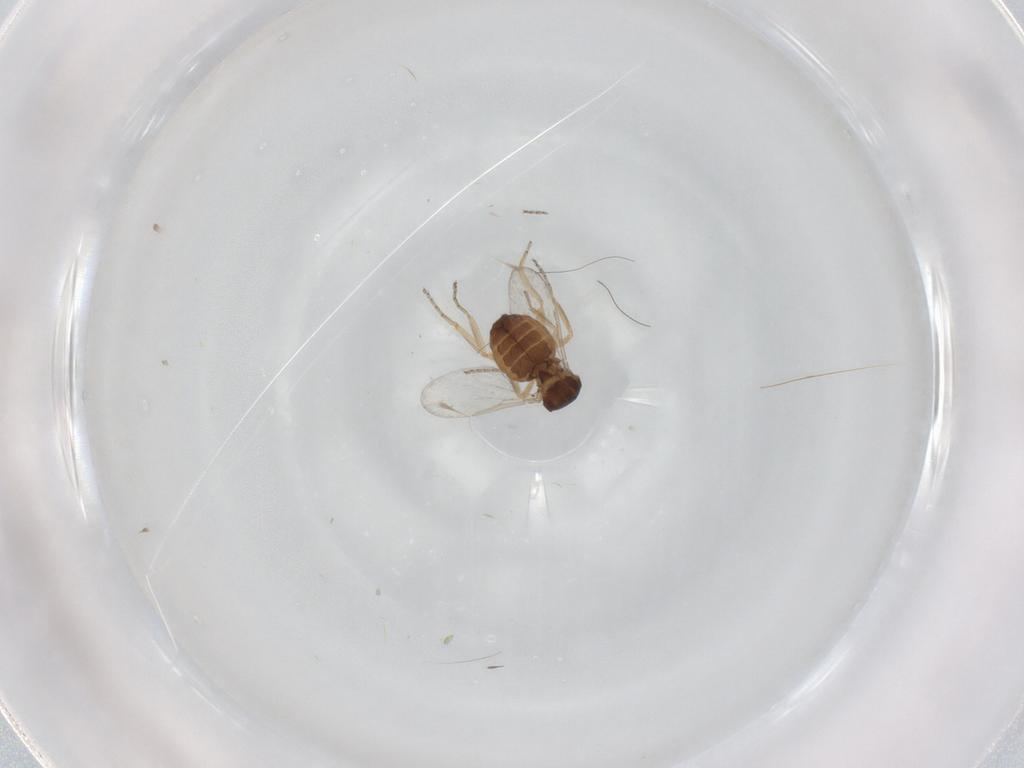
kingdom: Animalia
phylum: Arthropoda
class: Insecta
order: Diptera
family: Ceratopogonidae
